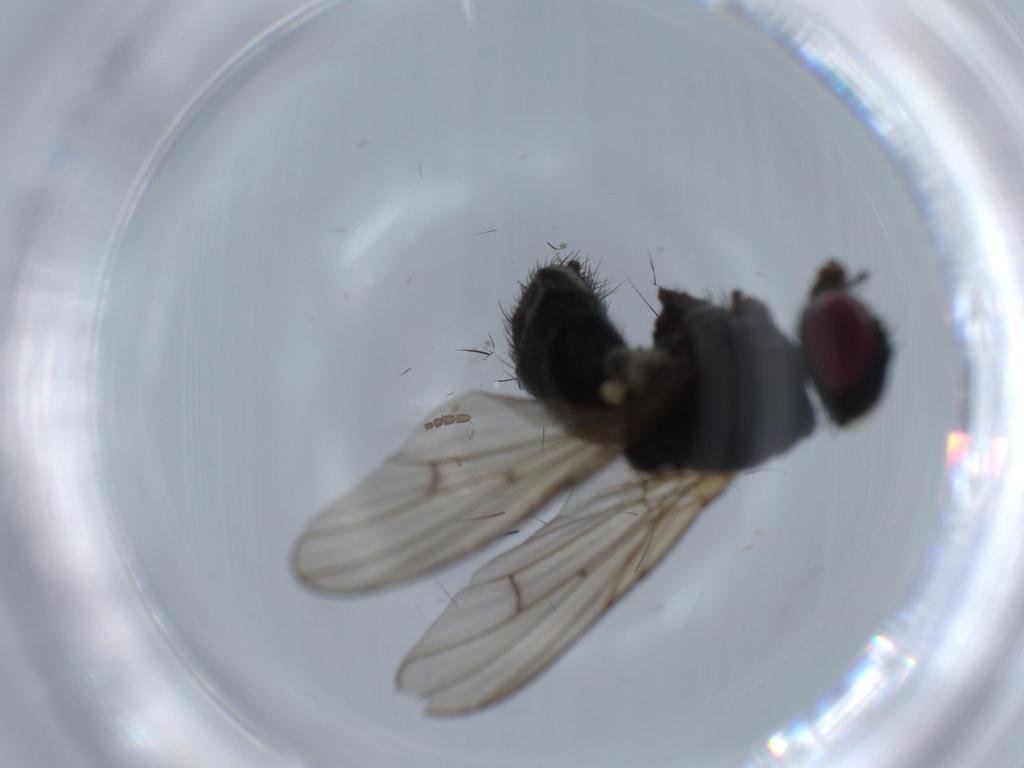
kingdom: Animalia
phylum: Arthropoda
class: Insecta
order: Diptera
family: Muscidae
